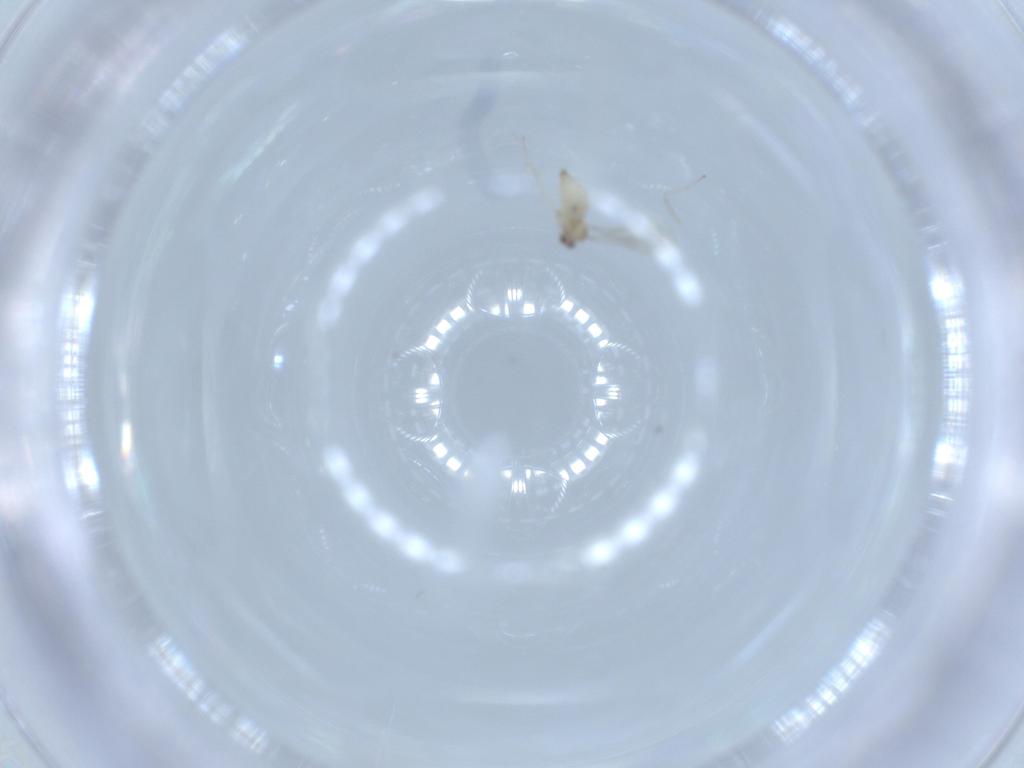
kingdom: Animalia
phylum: Arthropoda
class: Insecta
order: Diptera
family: Cecidomyiidae
